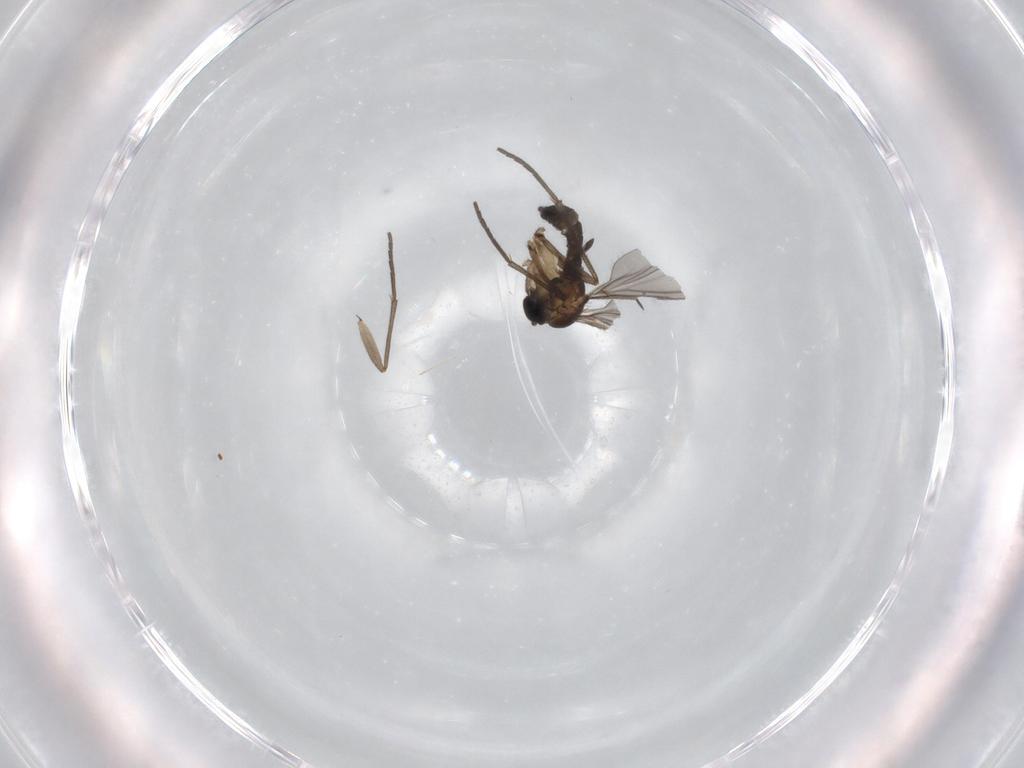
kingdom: Animalia
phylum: Arthropoda
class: Insecta
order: Diptera
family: Sciaridae
